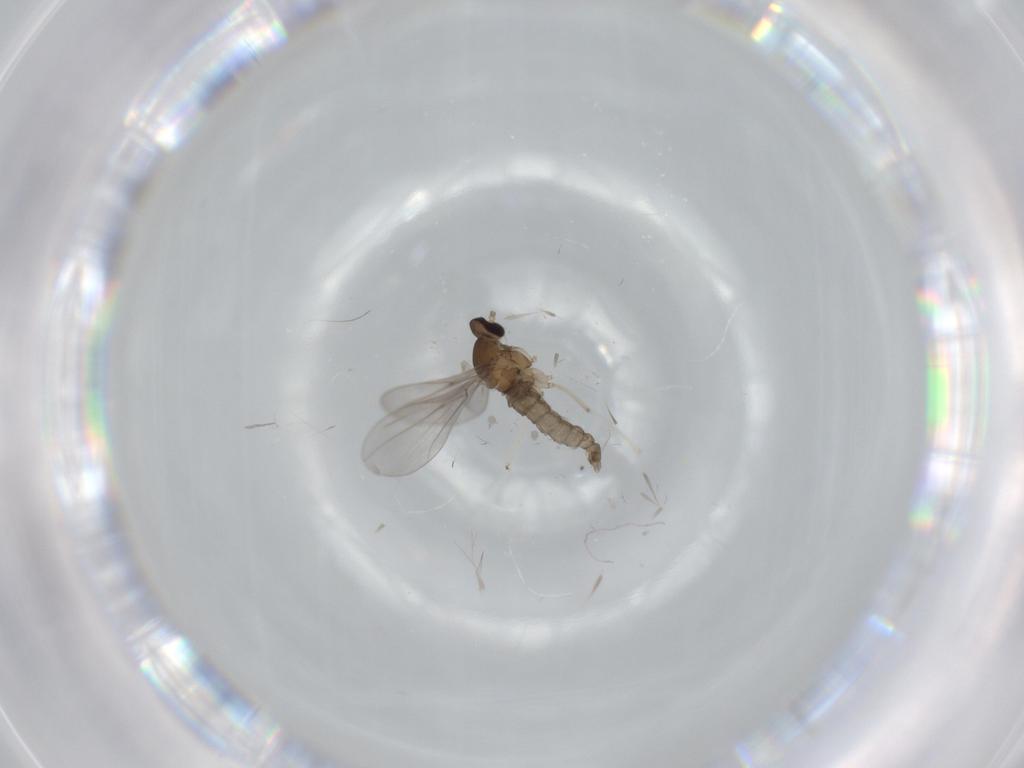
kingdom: Animalia
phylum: Arthropoda
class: Insecta
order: Diptera
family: Cecidomyiidae
